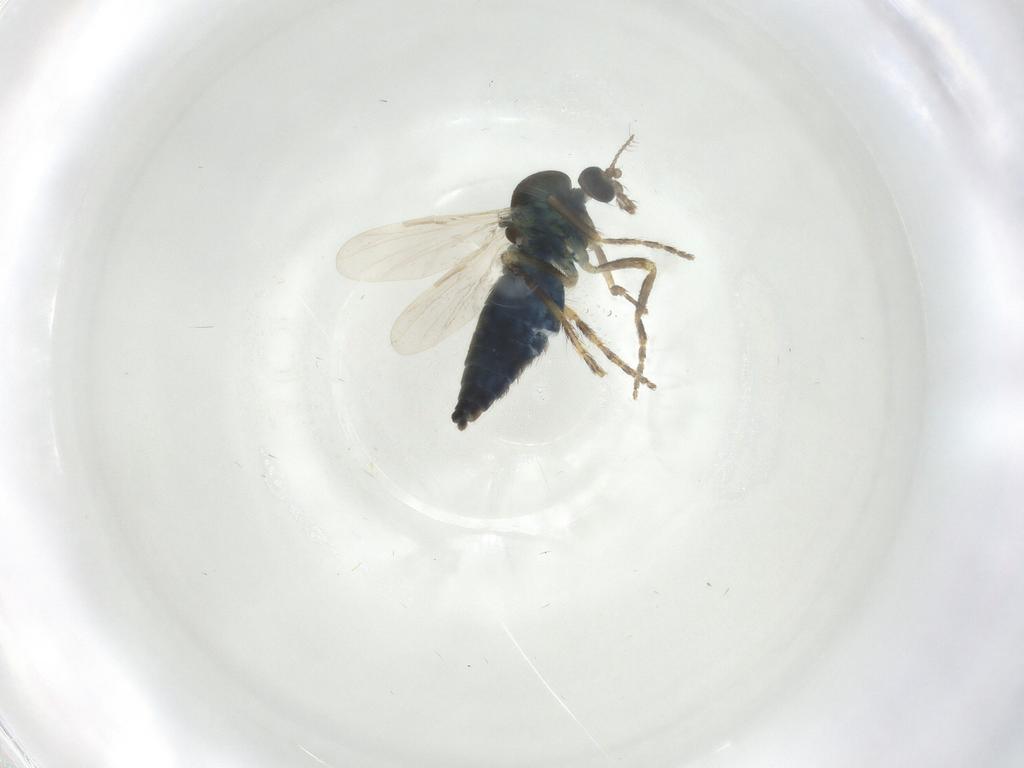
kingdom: Animalia
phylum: Arthropoda
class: Insecta
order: Diptera
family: Ceratopogonidae
